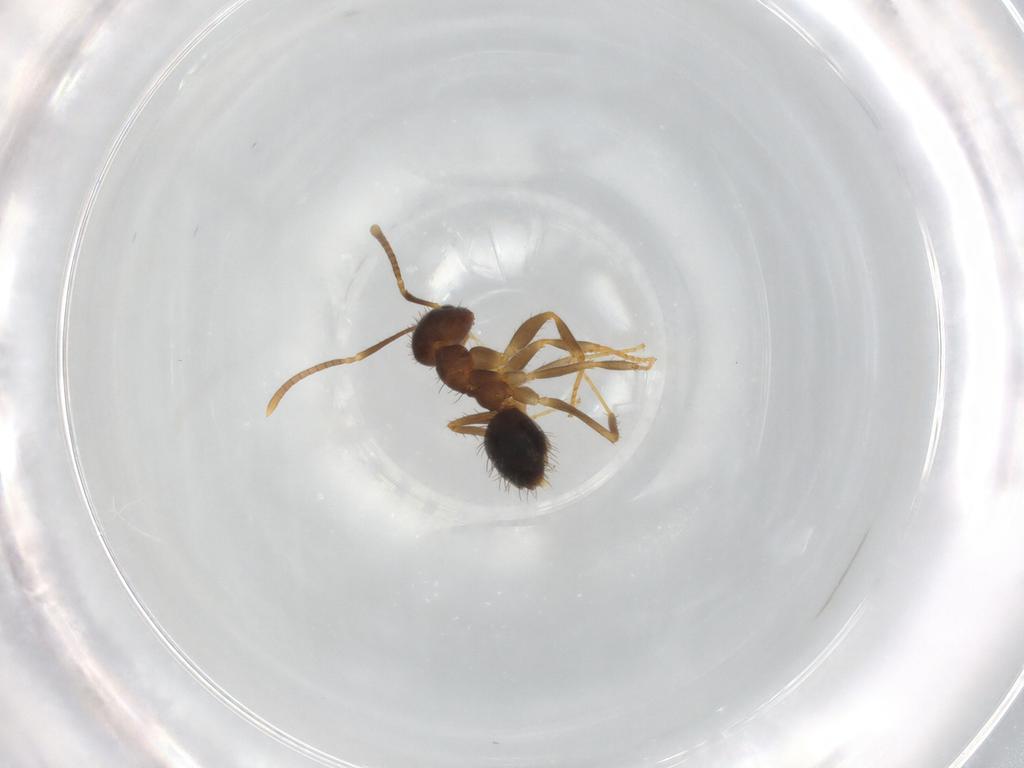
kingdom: Animalia
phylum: Arthropoda
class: Insecta
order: Hymenoptera
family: Formicidae
